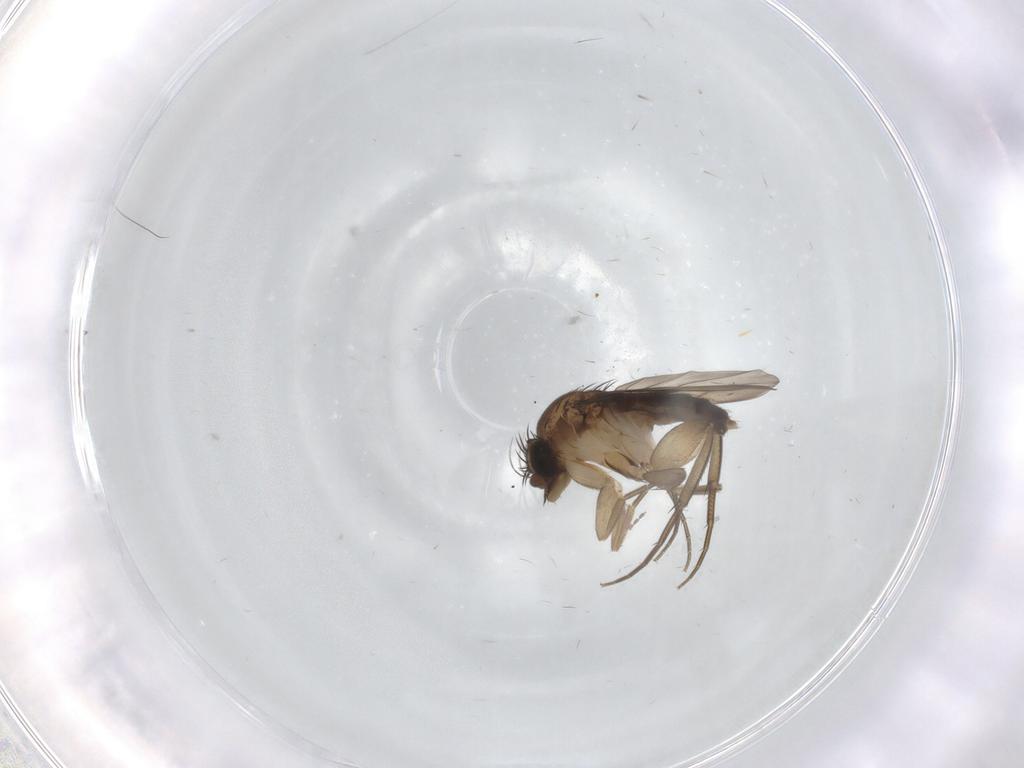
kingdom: Animalia
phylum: Arthropoda
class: Insecta
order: Diptera
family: Phoridae
